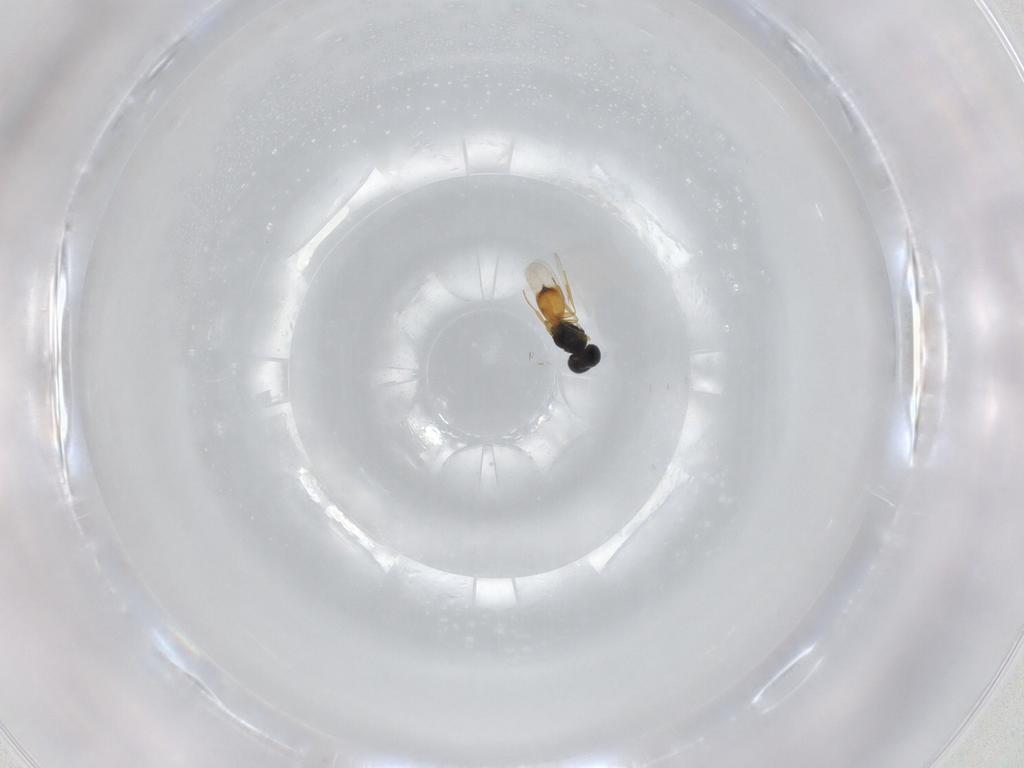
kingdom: Animalia
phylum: Arthropoda
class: Insecta
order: Hymenoptera
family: Scelionidae
